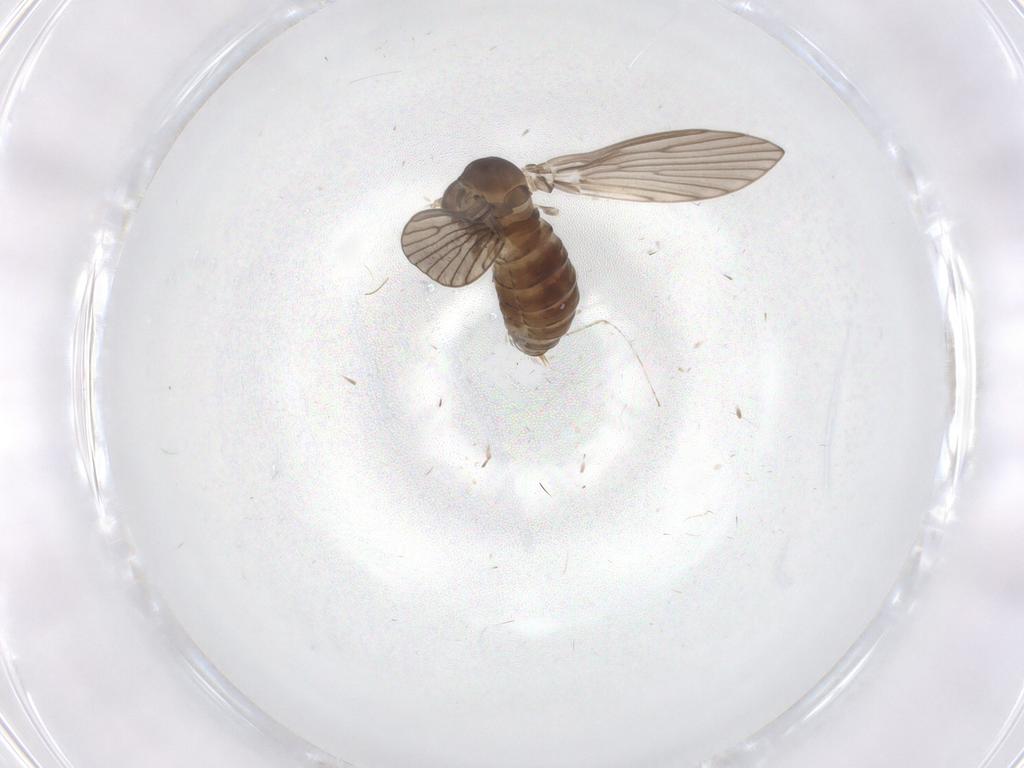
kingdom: Animalia
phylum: Arthropoda
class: Insecta
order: Diptera
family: Psychodidae
